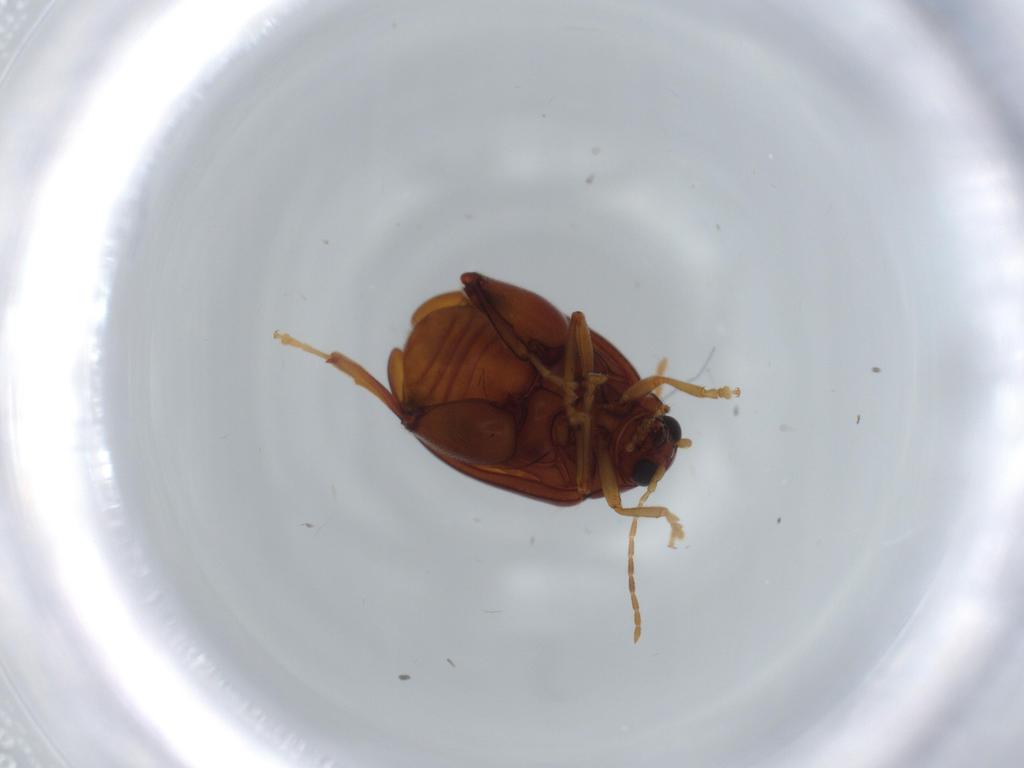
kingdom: Animalia
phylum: Arthropoda
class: Insecta
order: Coleoptera
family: Chrysomelidae
